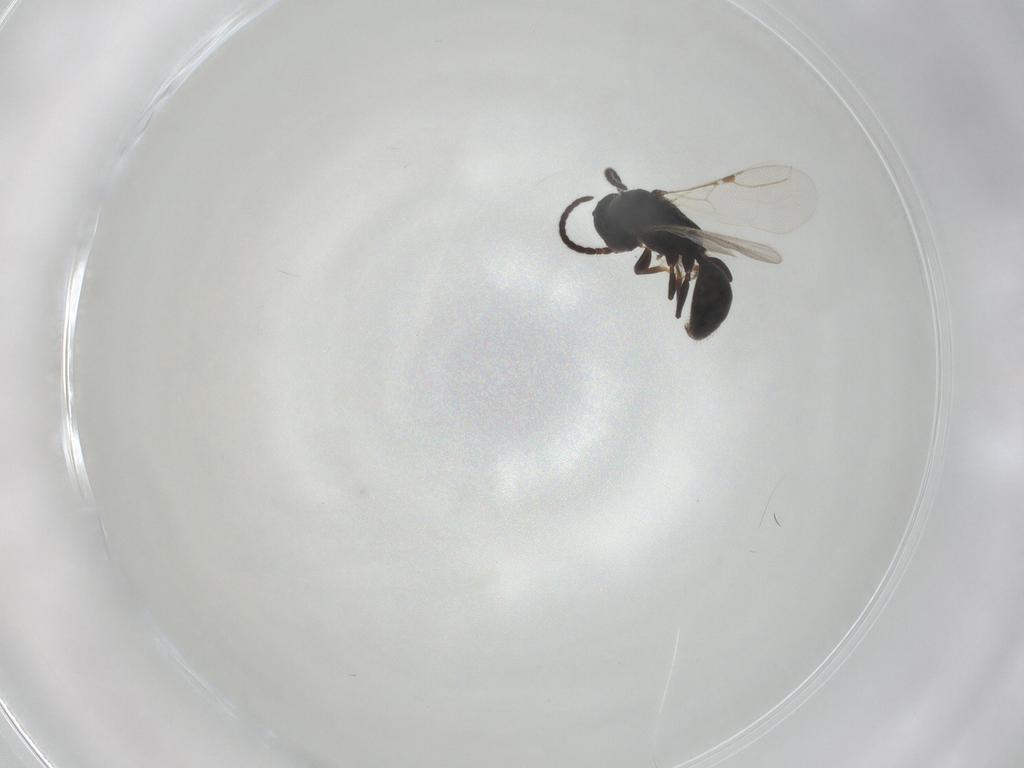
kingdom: Animalia
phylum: Arthropoda
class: Insecta
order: Hymenoptera
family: Bethylidae
